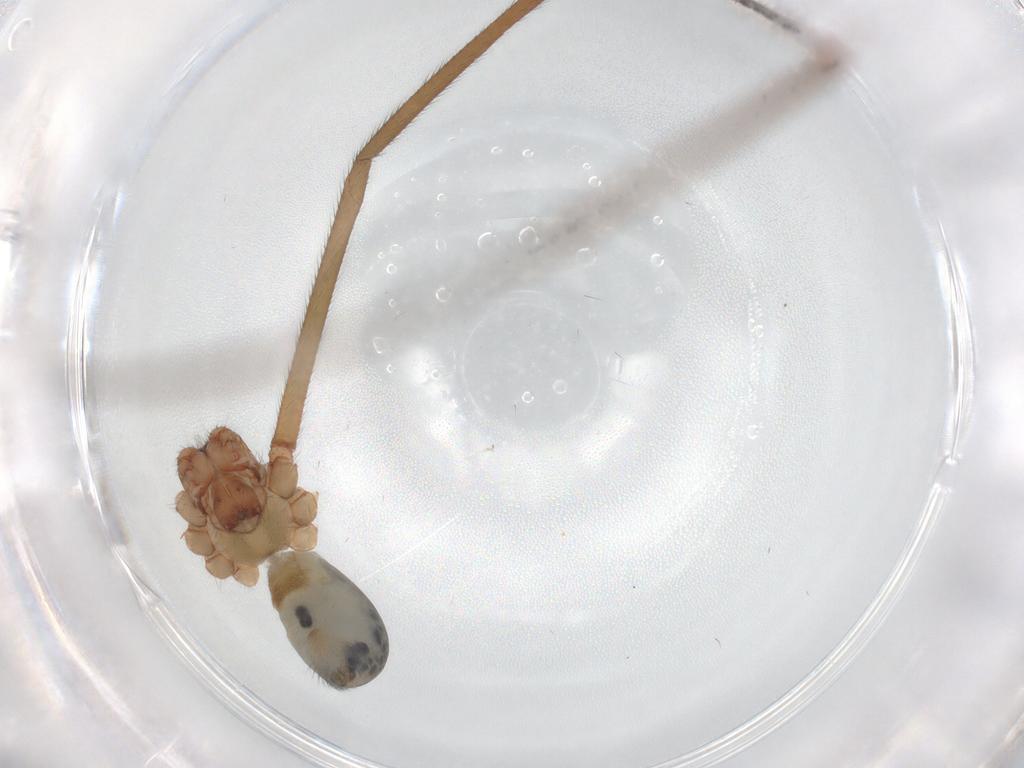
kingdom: Animalia
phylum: Arthropoda
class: Arachnida
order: Araneae
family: Pholcidae
